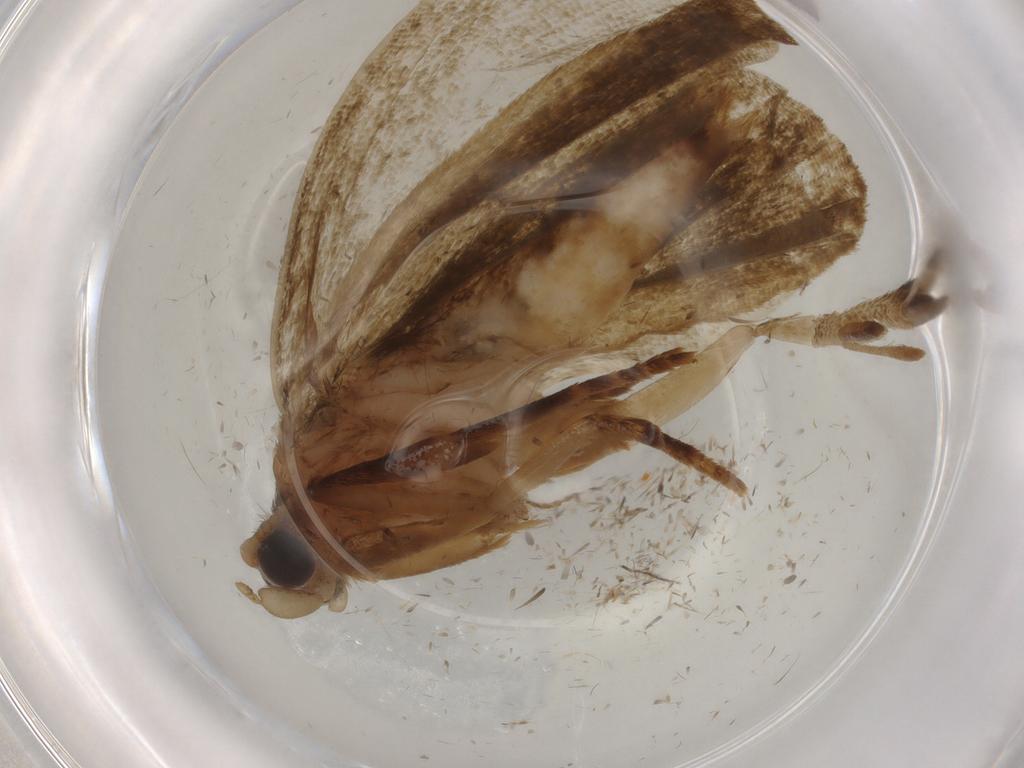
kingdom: Animalia
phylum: Arthropoda
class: Insecta
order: Lepidoptera
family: Geometridae
